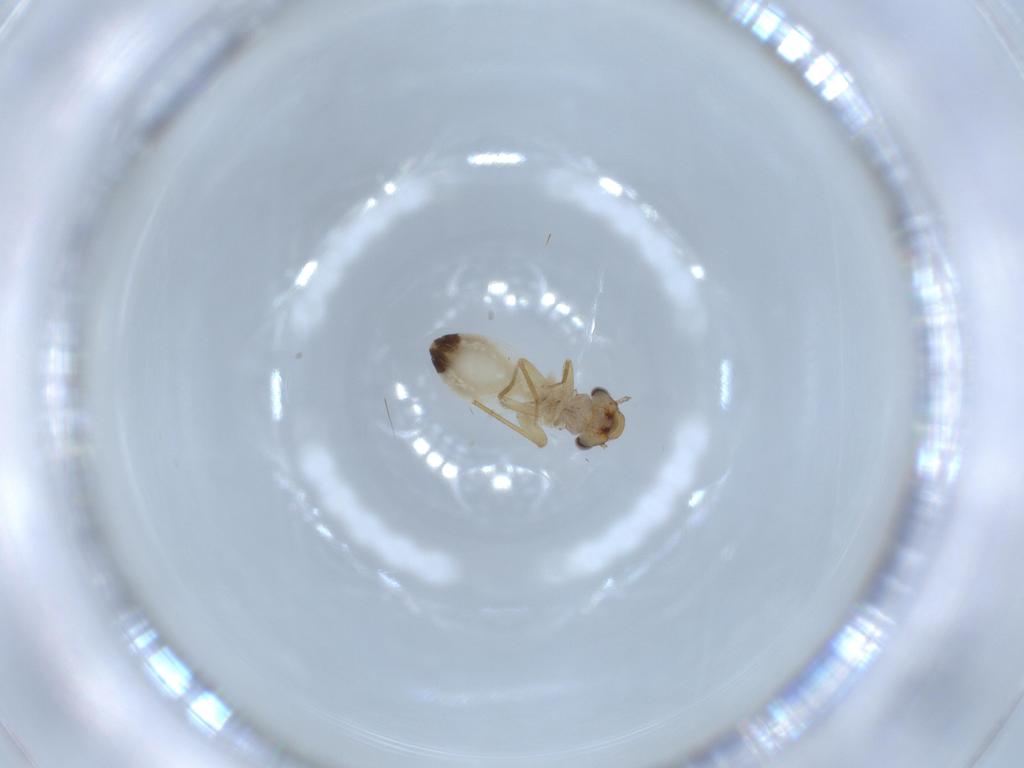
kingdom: Animalia
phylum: Arthropoda
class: Insecta
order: Psocodea
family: Lepidopsocidae
